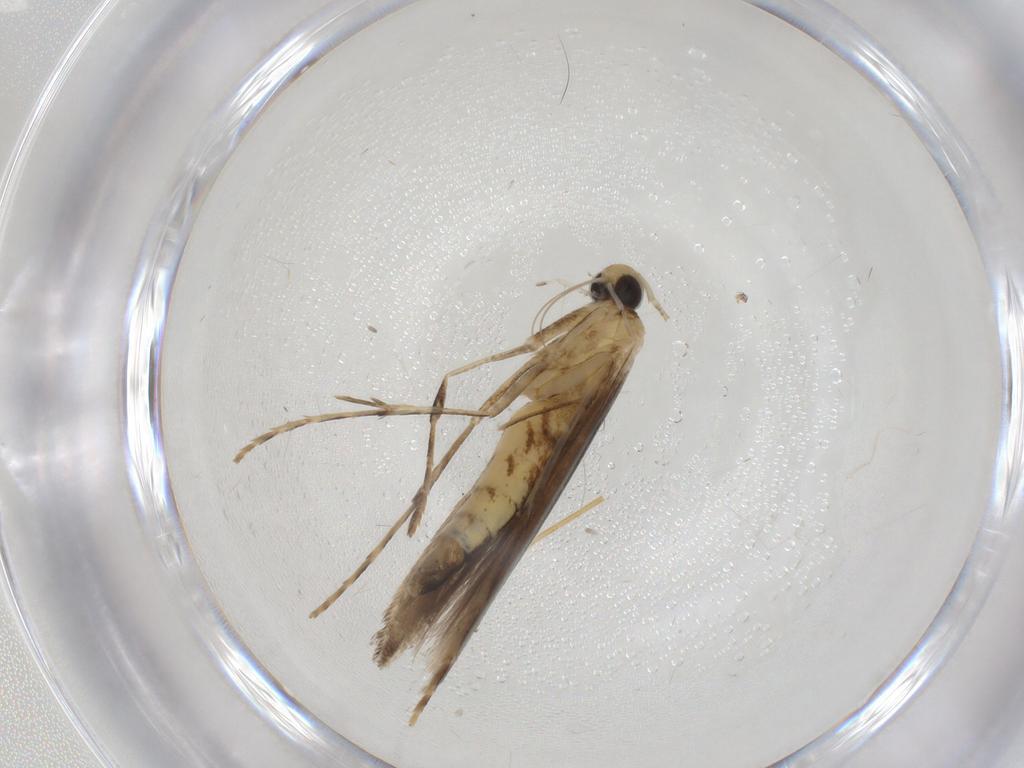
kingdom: Animalia
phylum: Arthropoda
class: Insecta
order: Lepidoptera
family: Gracillariidae
